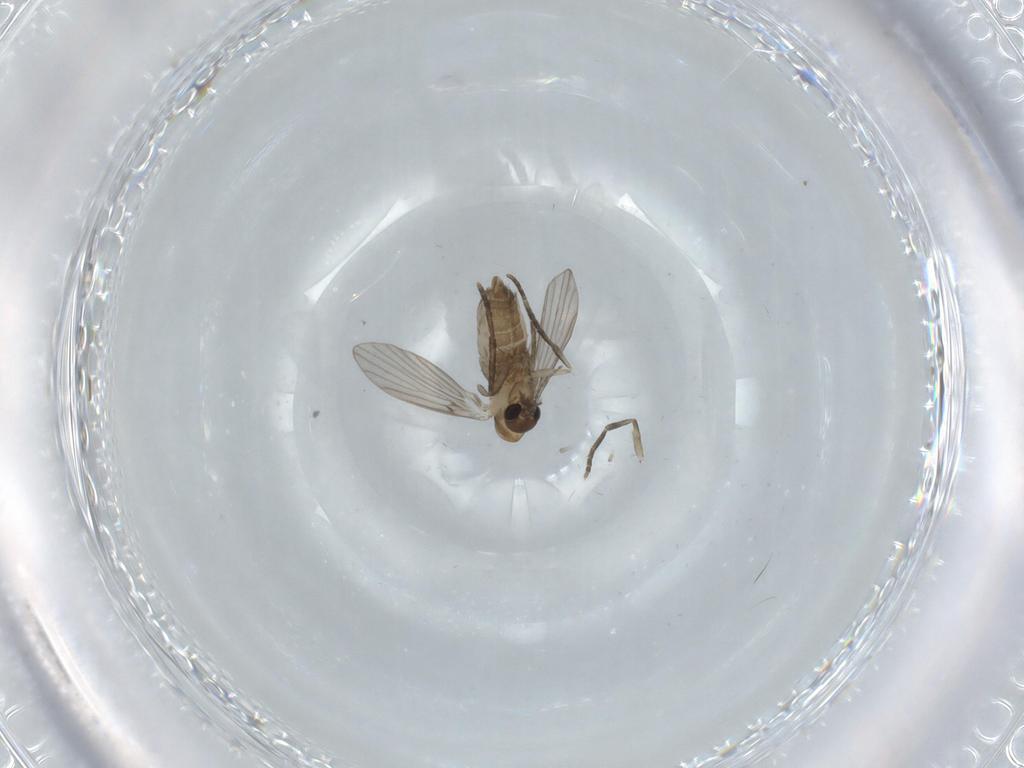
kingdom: Animalia
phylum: Arthropoda
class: Insecta
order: Diptera
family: Psychodidae
